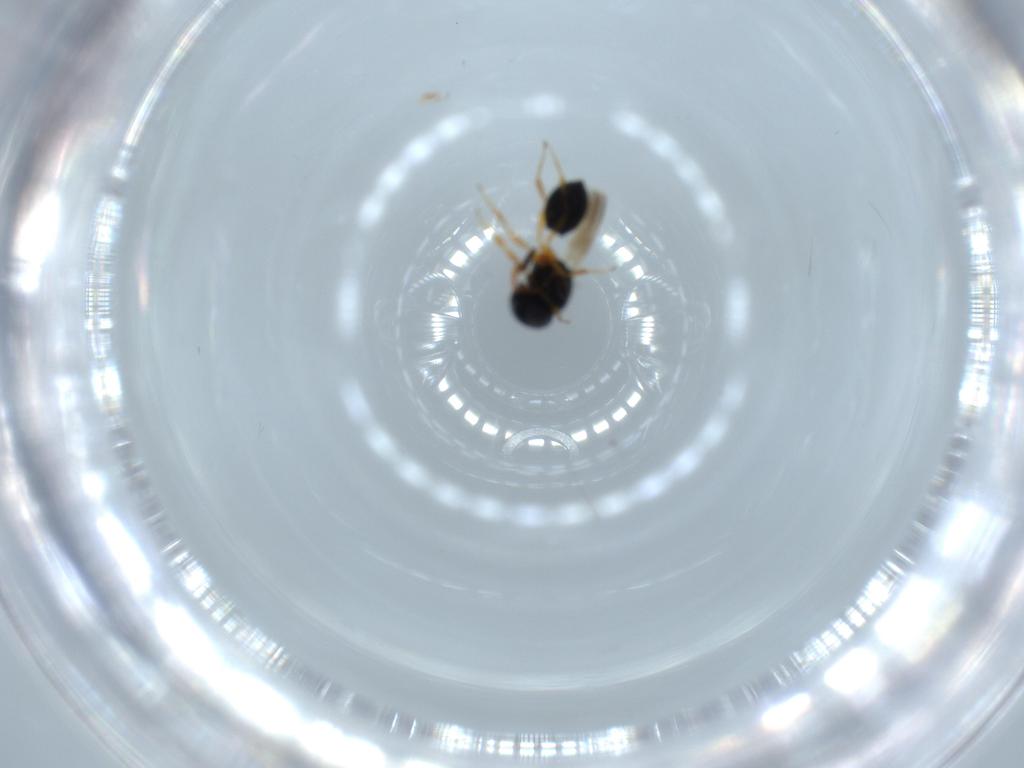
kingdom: Animalia
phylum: Arthropoda
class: Insecta
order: Hymenoptera
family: Scelionidae
